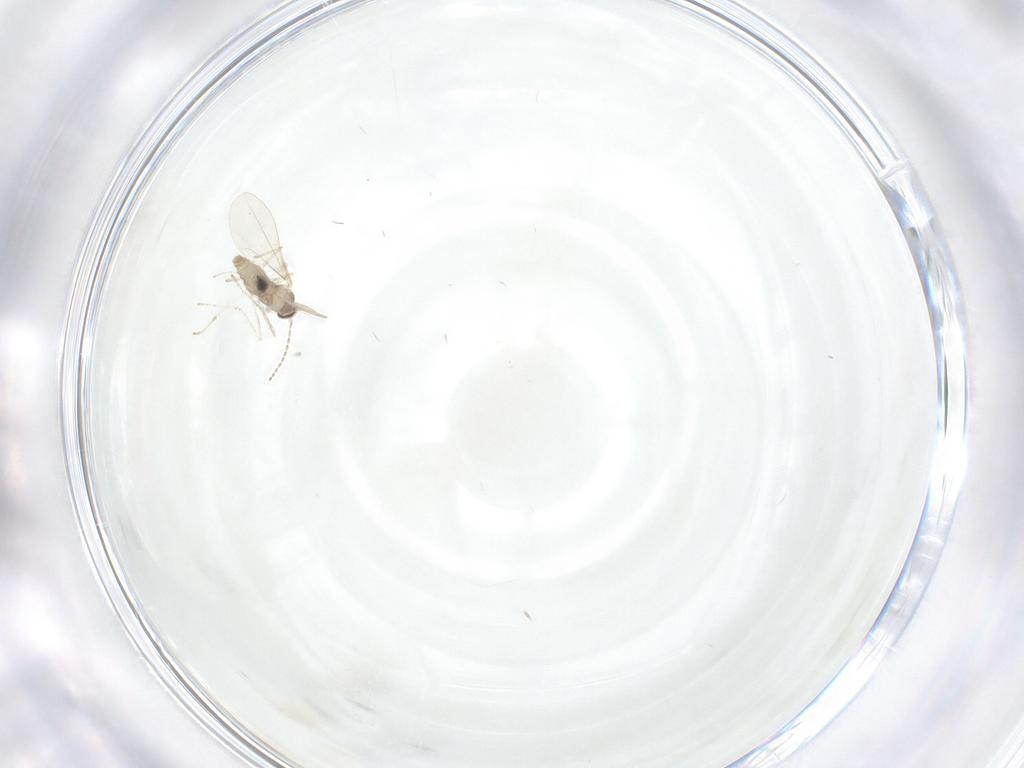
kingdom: Animalia
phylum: Arthropoda
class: Insecta
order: Diptera
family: Cecidomyiidae
